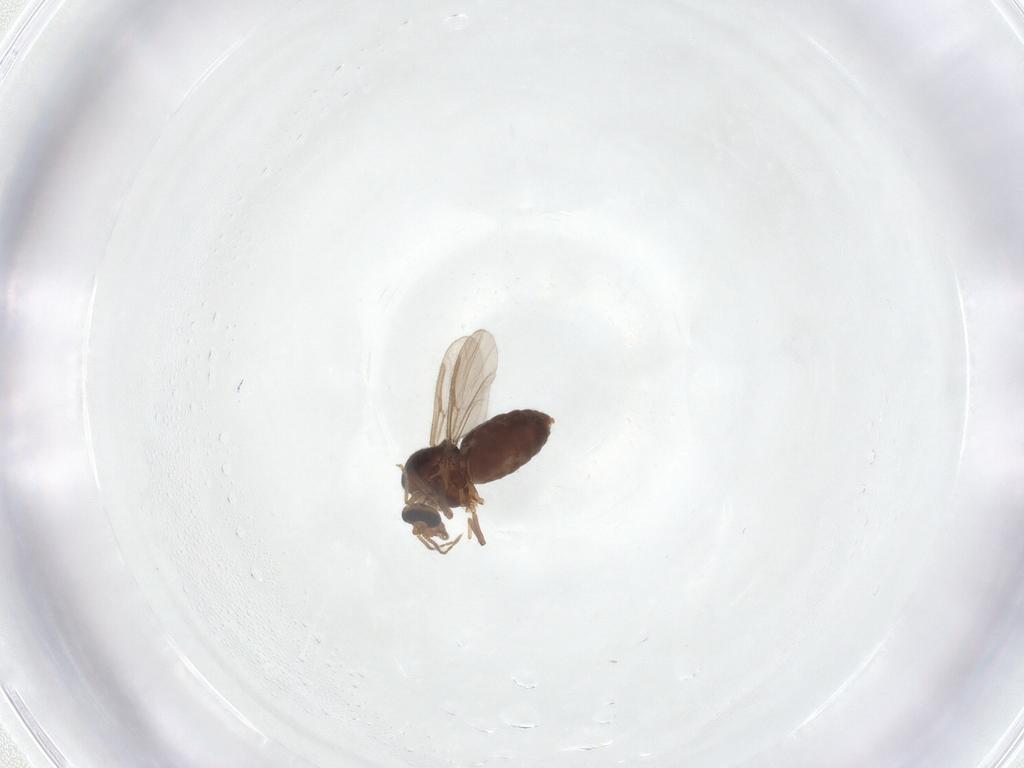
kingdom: Animalia
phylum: Arthropoda
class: Insecta
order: Diptera
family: Ceratopogonidae
